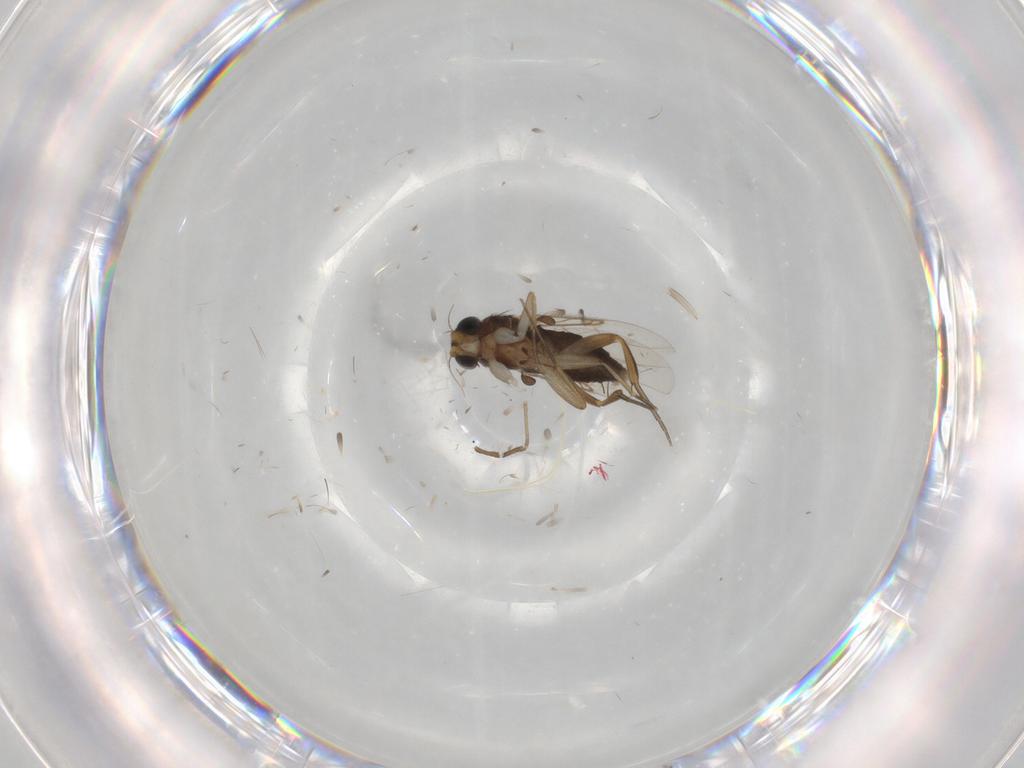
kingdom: Animalia
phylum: Arthropoda
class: Insecta
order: Diptera
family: Phoridae
